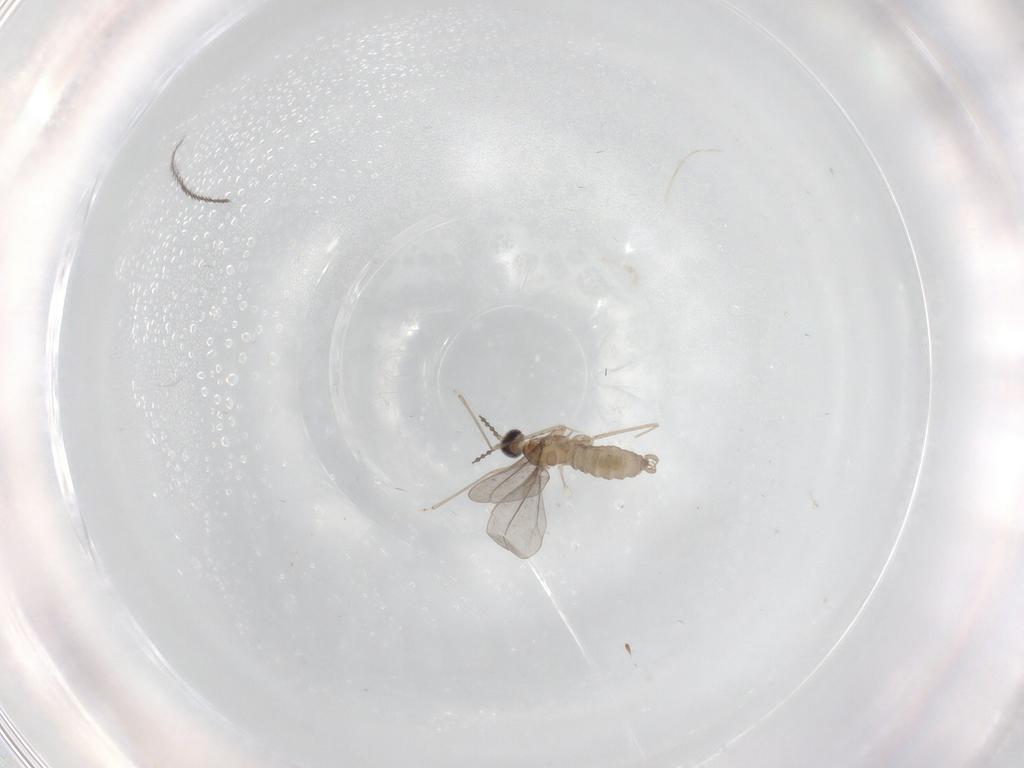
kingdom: Animalia
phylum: Arthropoda
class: Insecta
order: Diptera
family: Cecidomyiidae
